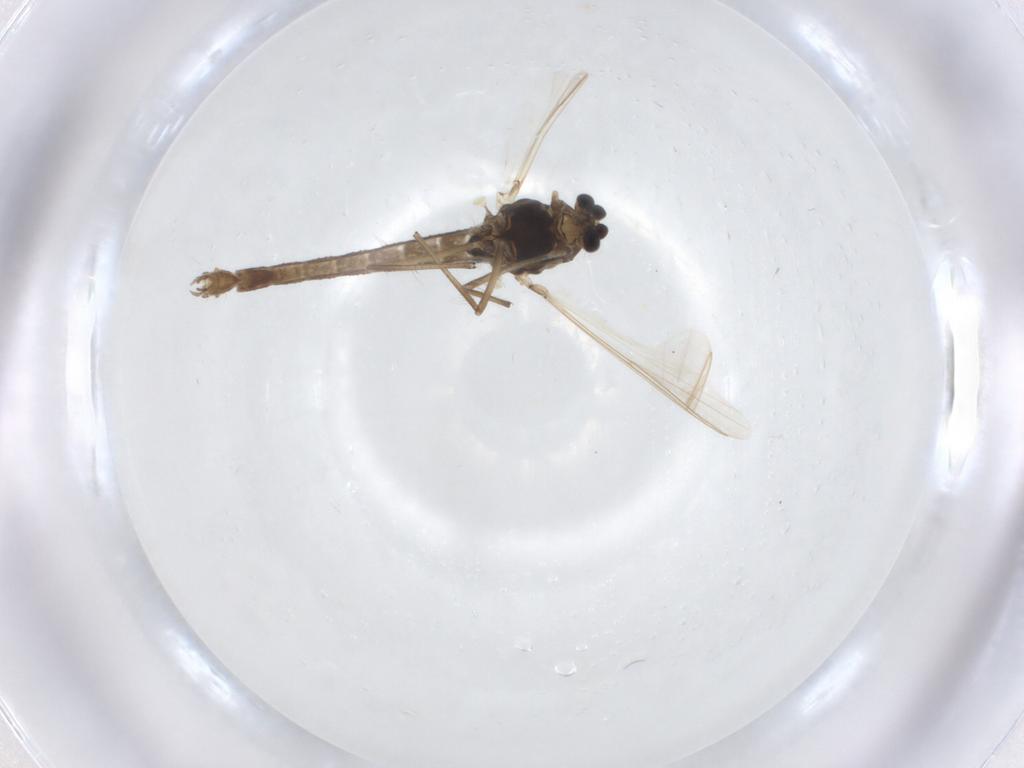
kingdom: Animalia
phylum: Arthropoda
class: Insecta
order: Diptera
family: Chironomidae
